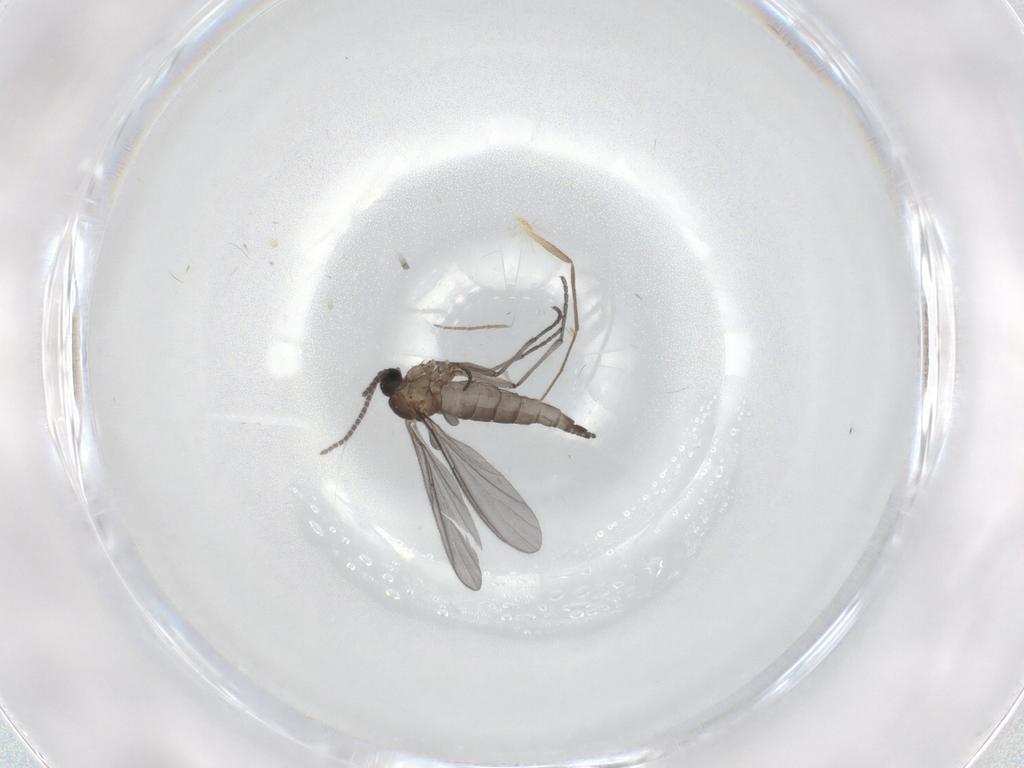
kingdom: Animalia
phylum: Arthropoda
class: Insecta
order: Diptera
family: Sciaridae
